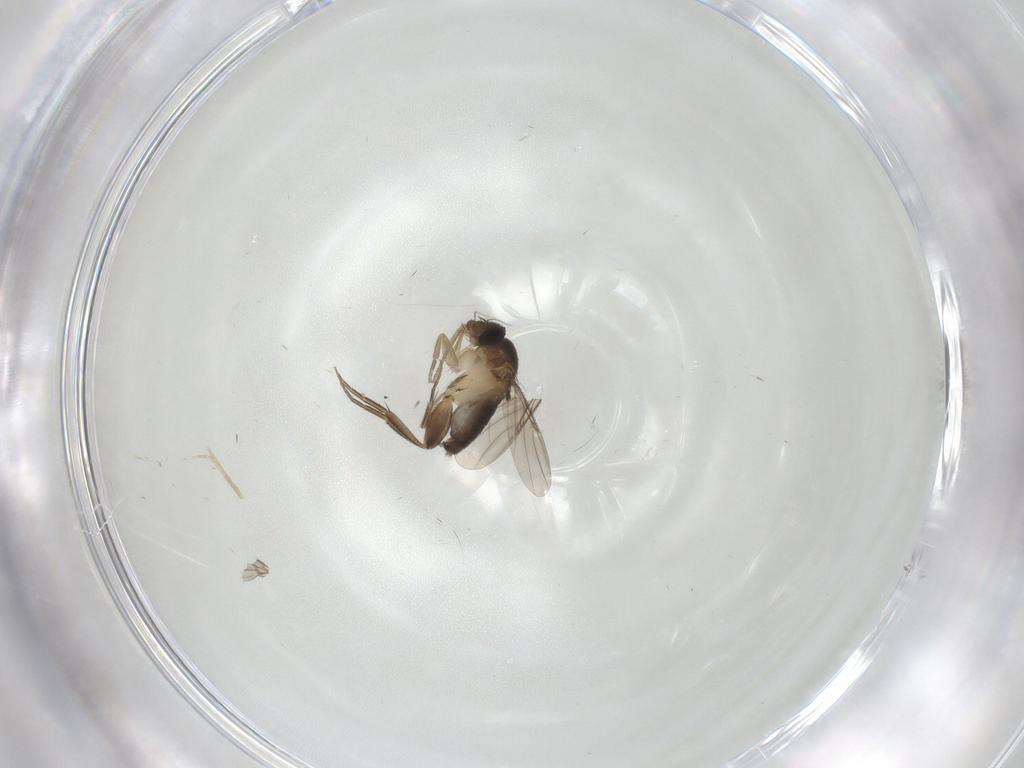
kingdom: Animalia
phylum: Arthropoda
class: Insecta
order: Diptera
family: Phoridae
